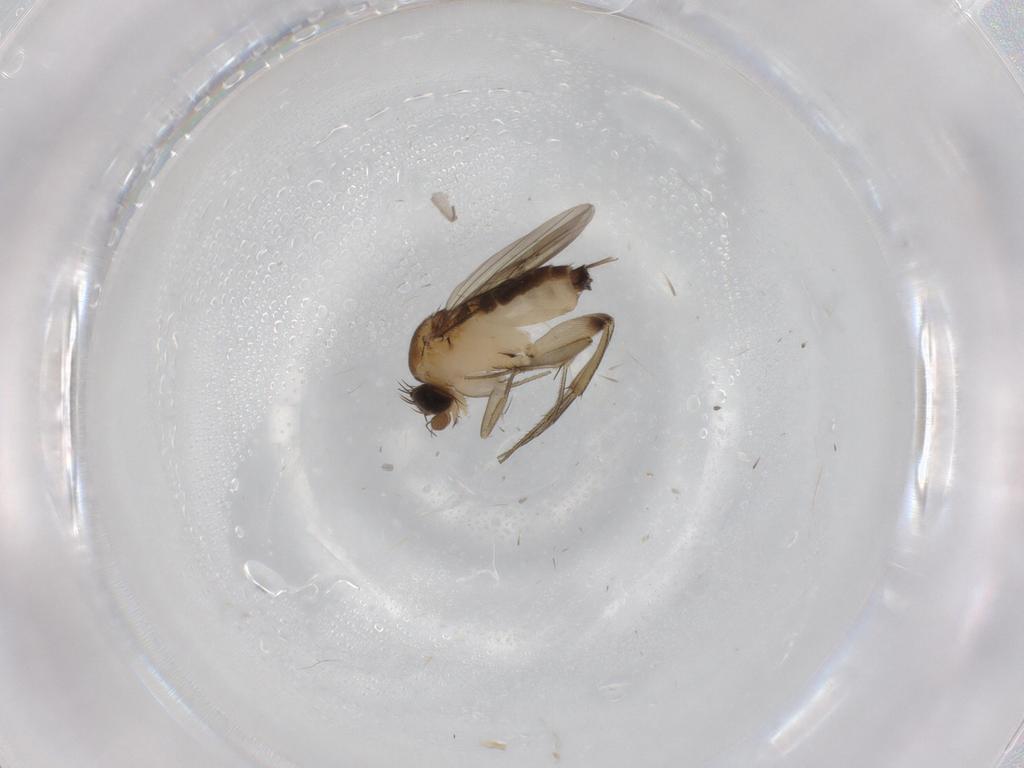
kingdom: Animalia
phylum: Arthropoda
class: Insecta
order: Diptera
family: Phoridae
